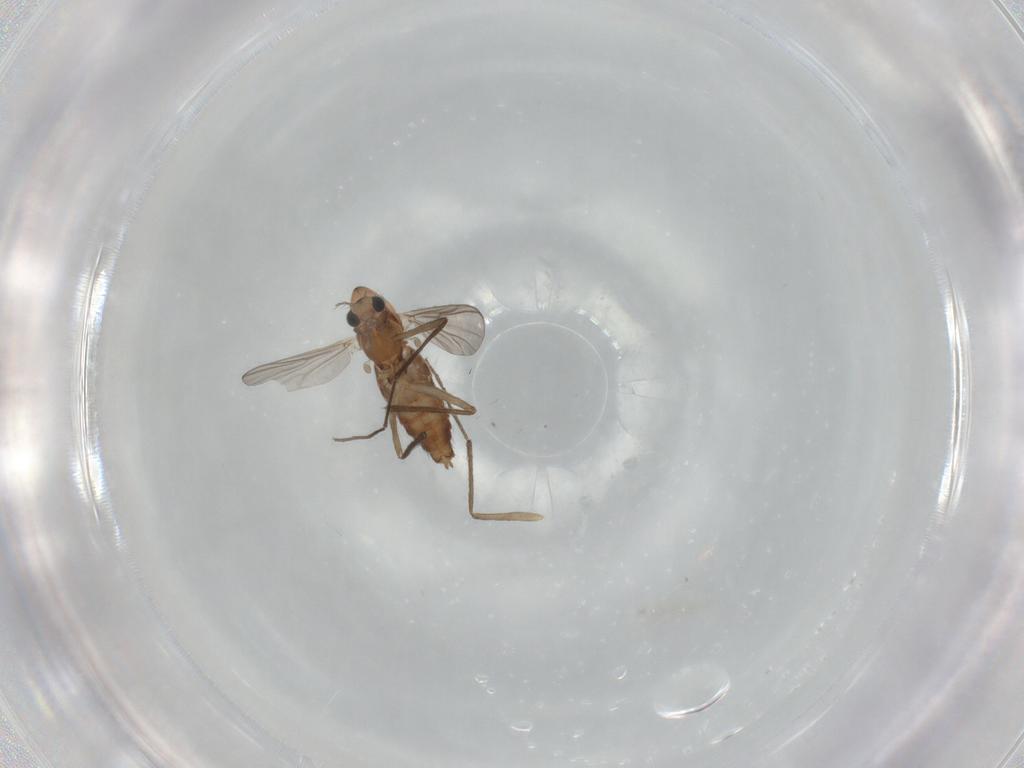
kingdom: Animalia
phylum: Arthropoda
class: Insecta
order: Diptera
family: Chironomidae
